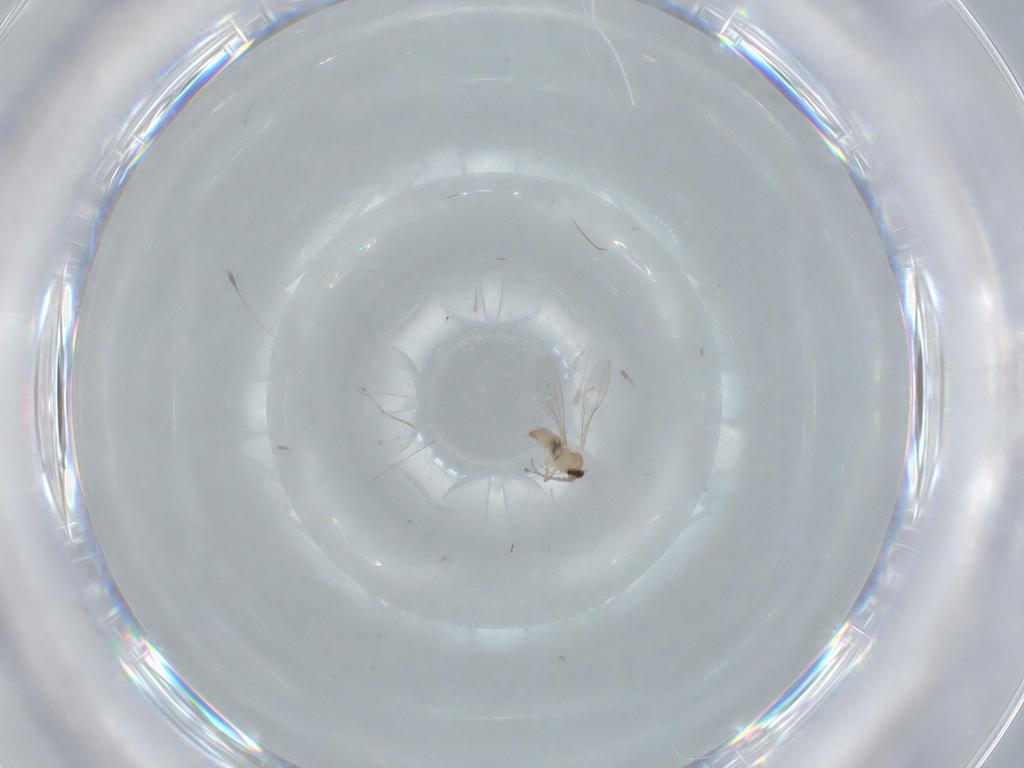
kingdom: Animalia
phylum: Arthropoda
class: Insecta
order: Diptera
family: Cecidomyiidae
